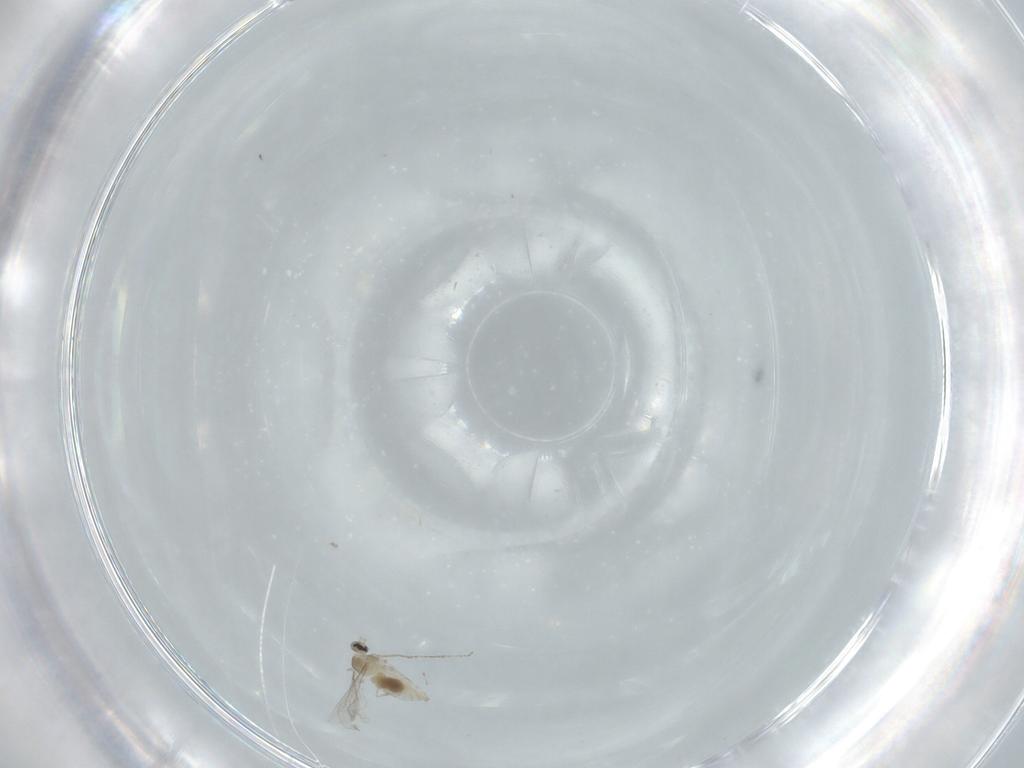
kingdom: Animalia
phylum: Arthropoda
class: Insecta
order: Diptera
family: Cecidomyiidae
